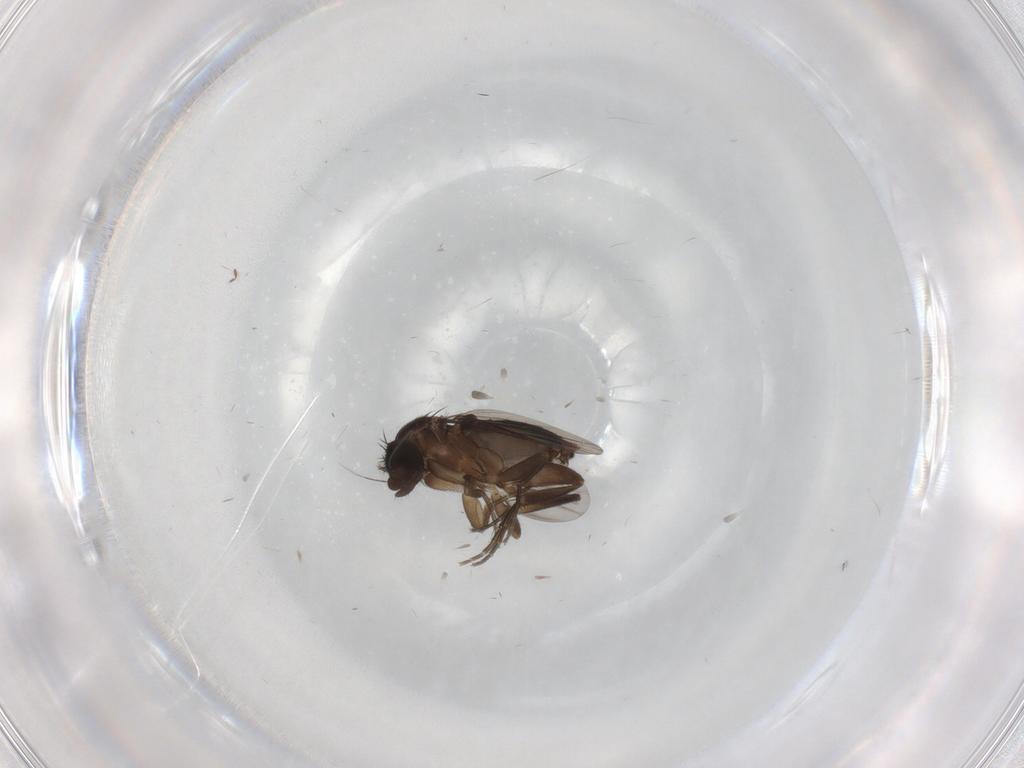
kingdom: Animalia
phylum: Arthropoda
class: Insecta
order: Diptera
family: Phoridae
